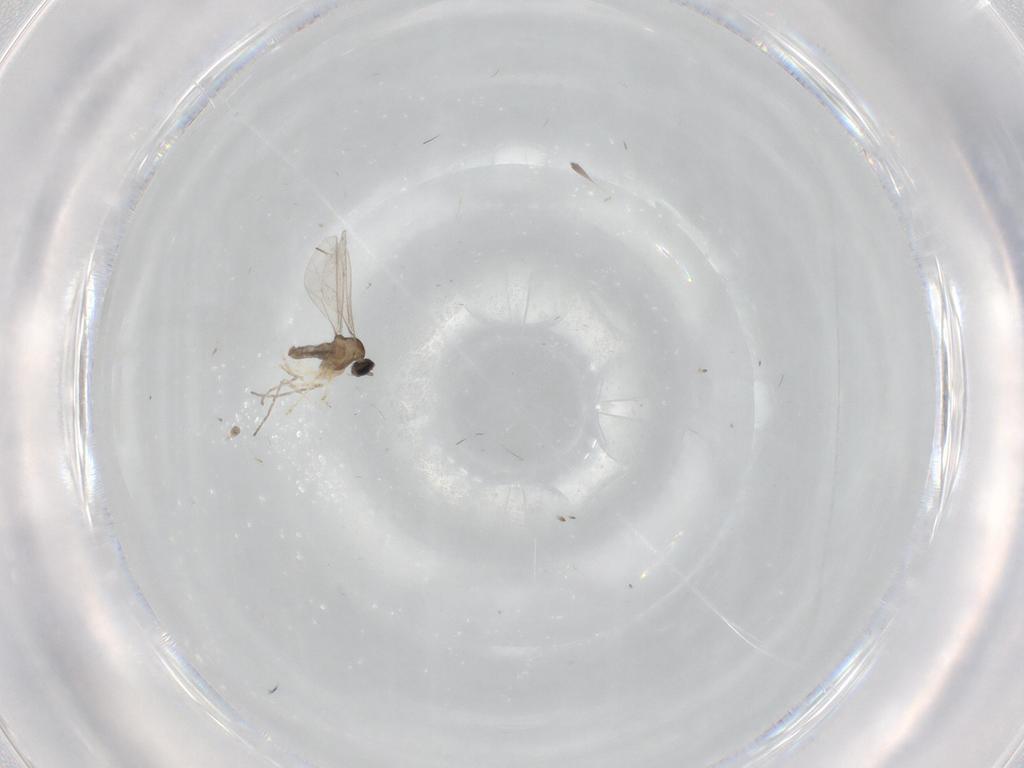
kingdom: Animalia
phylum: Arthropoda
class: Insecta
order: Diptera
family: Cecidomyiidae
